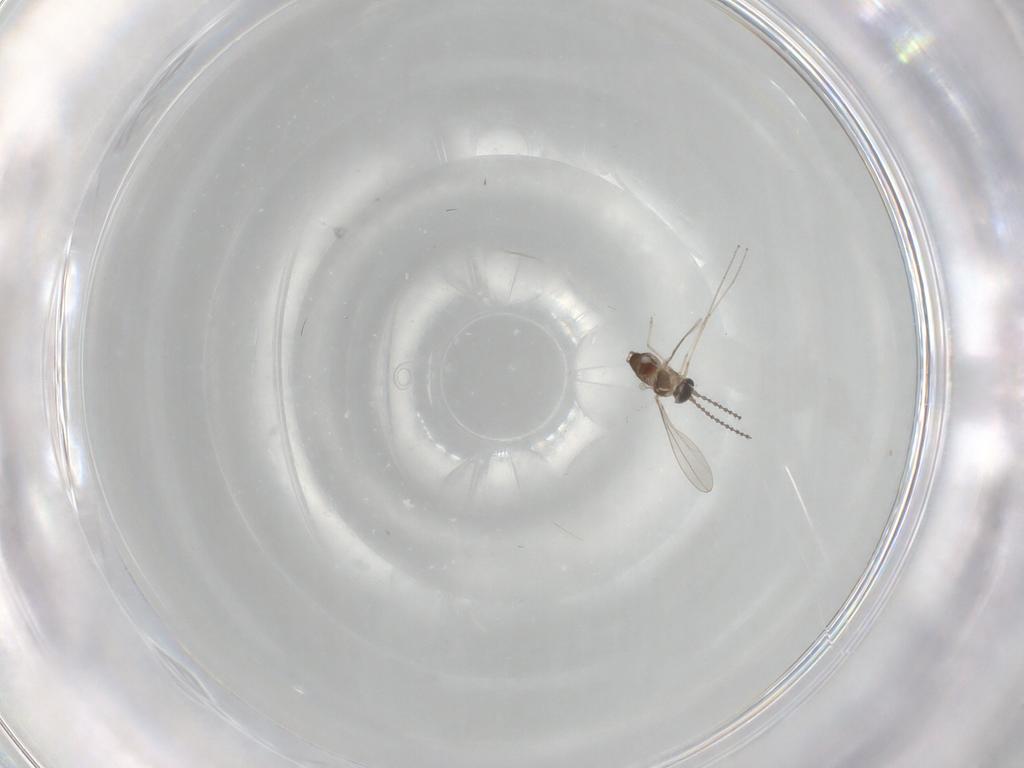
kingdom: Animalia
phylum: Arthropoda
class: Insecta
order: Diptera
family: Cecidomyiidae
